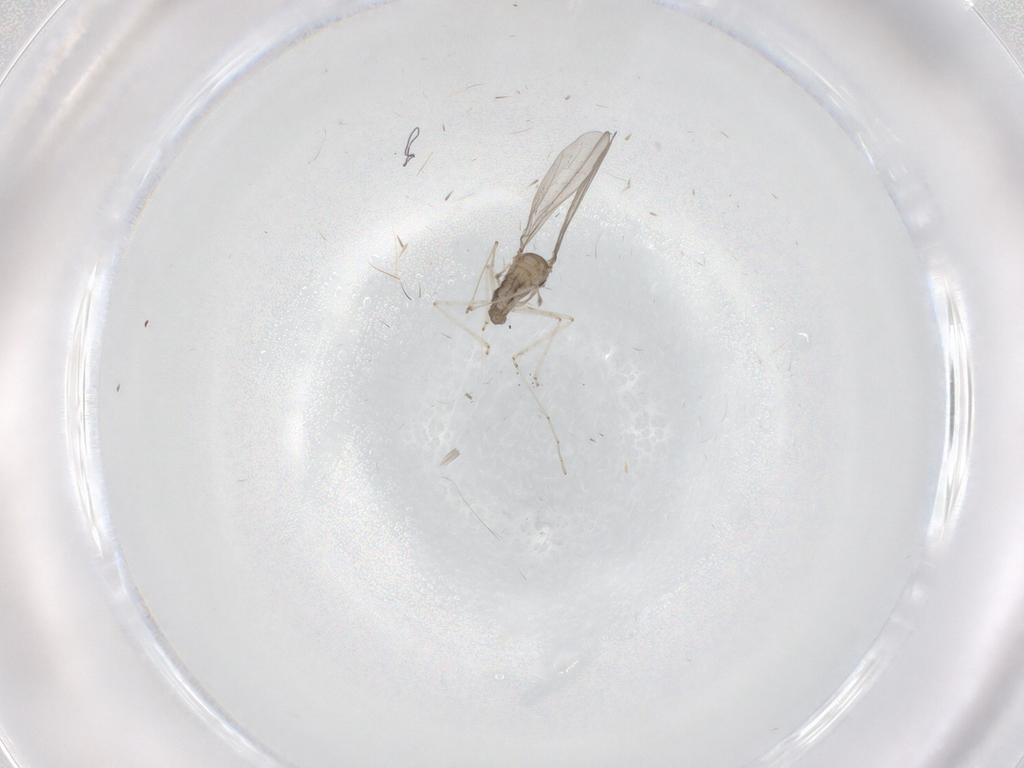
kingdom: Animalia
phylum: Arthropoda
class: Insecta
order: Diptera
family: Cecidomyiidae
